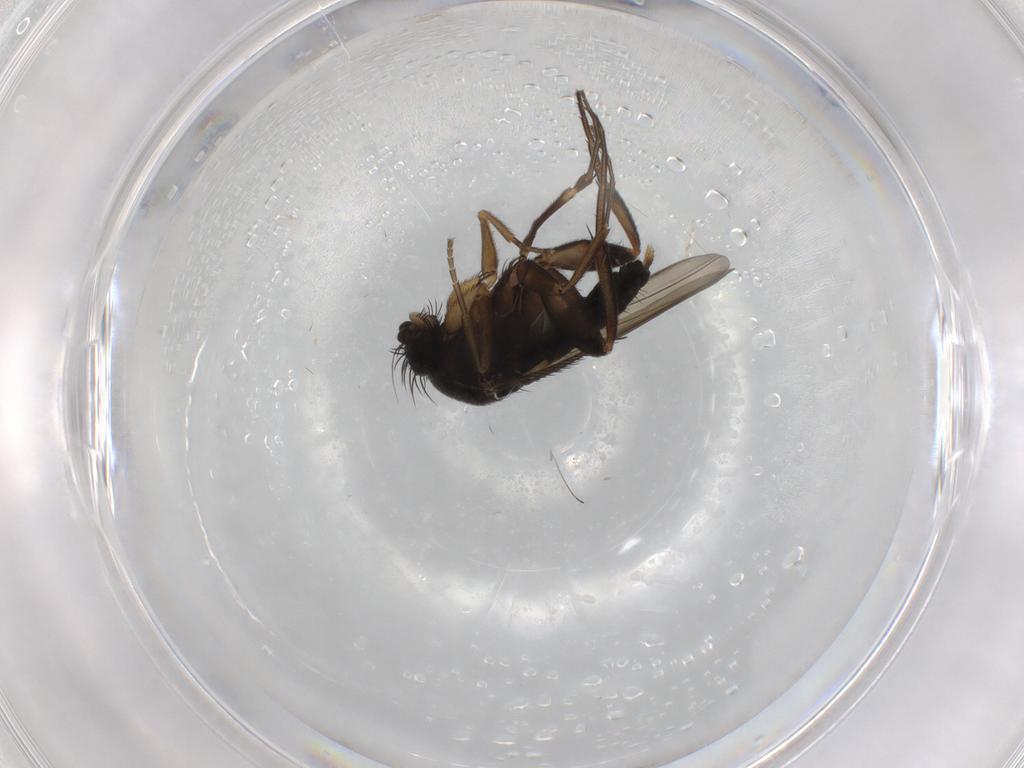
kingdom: Animalia
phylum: Arthropoda
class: Insecta
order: Diptera
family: Phoridae
